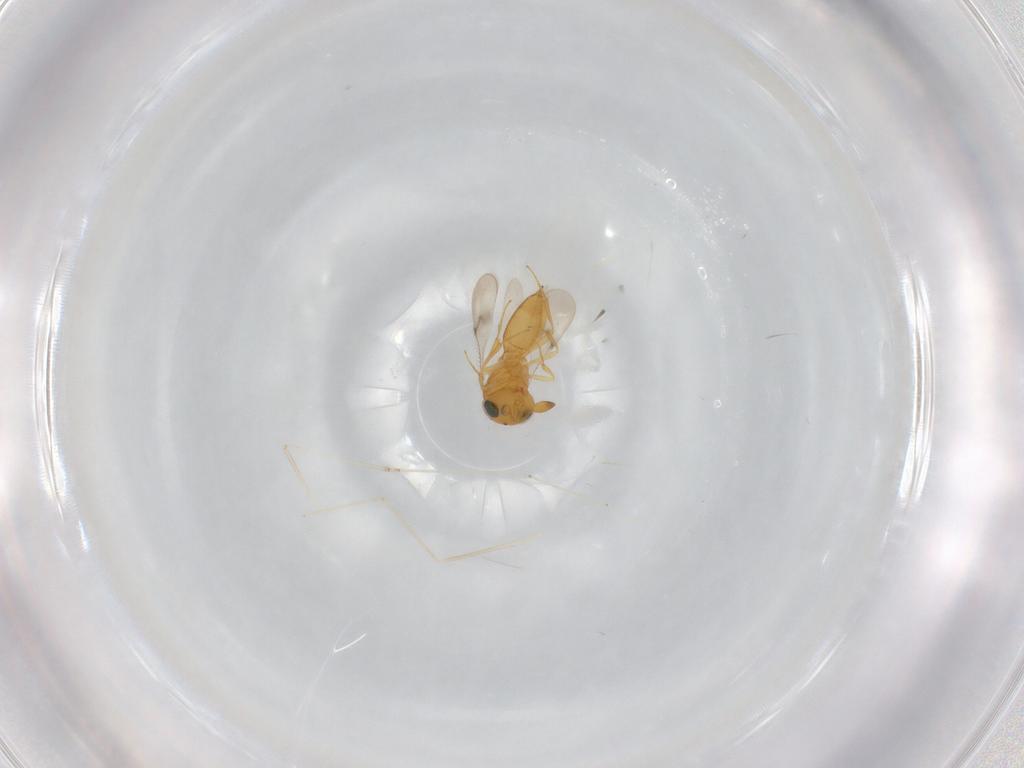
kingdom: Animalia
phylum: Arthropoda
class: Insecta
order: Hymenoptera
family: Scelionidae
